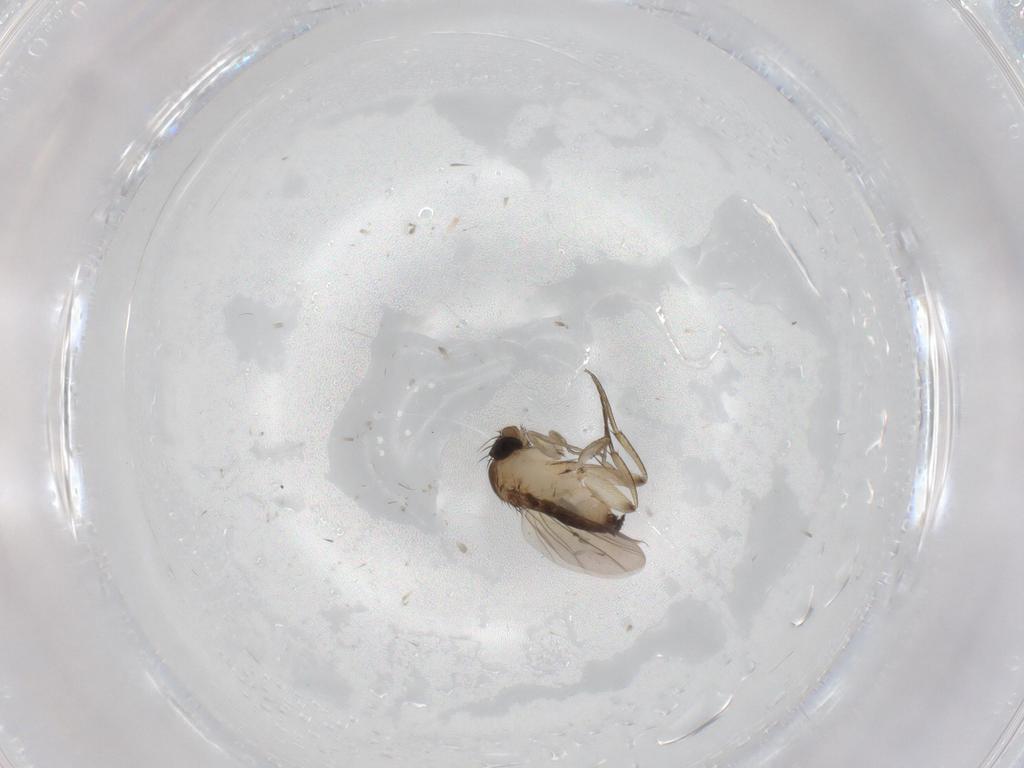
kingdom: Animalia
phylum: Arthropoda
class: Insecta
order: Diptera
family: Phoridae
